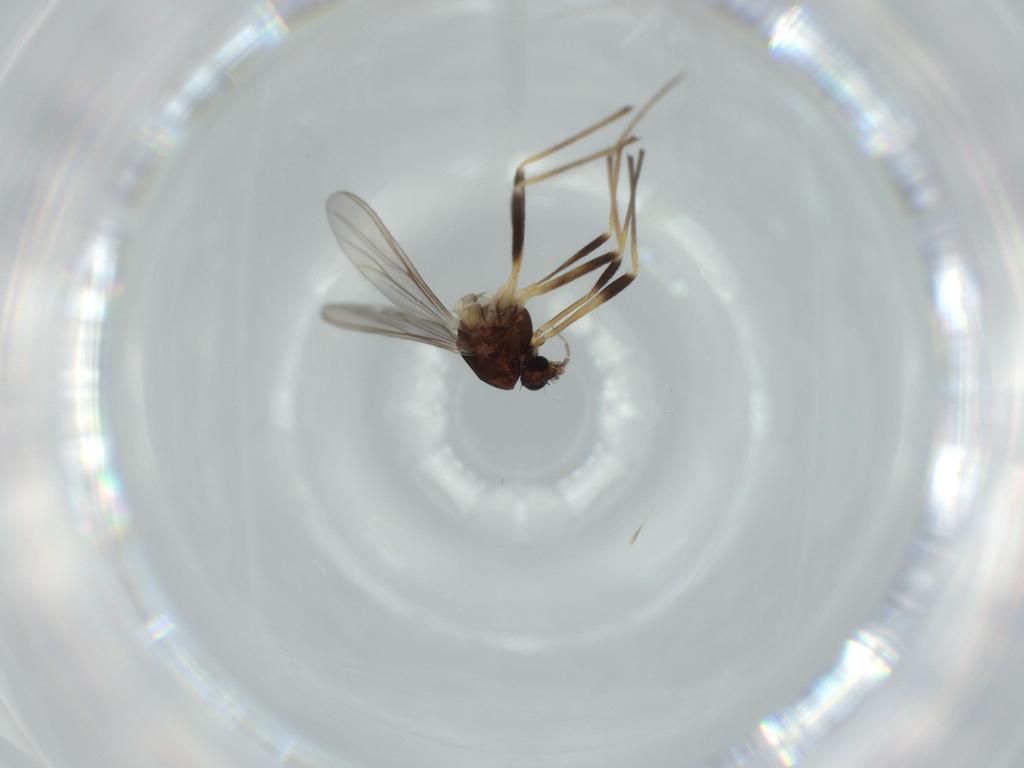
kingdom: Animalia
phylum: Arthropoda
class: Insecta
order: Diptera
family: Chironomidae
